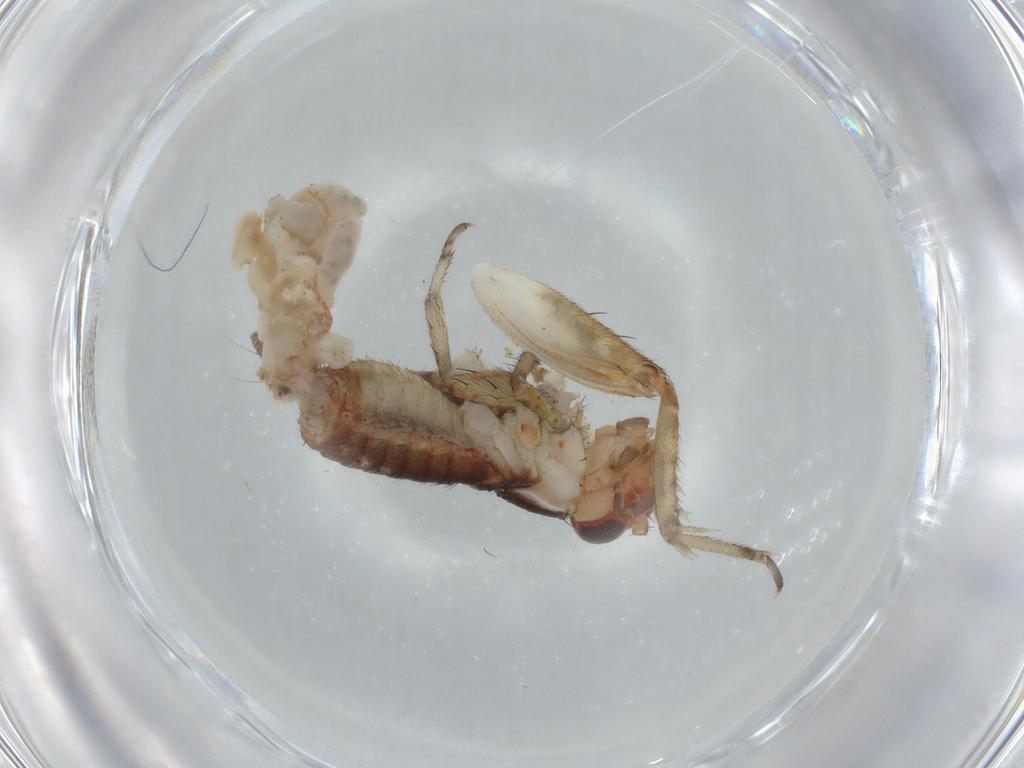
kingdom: Animalia
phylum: Arthropoda
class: Insecta
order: Orthoptera
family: Trigonidiidae
